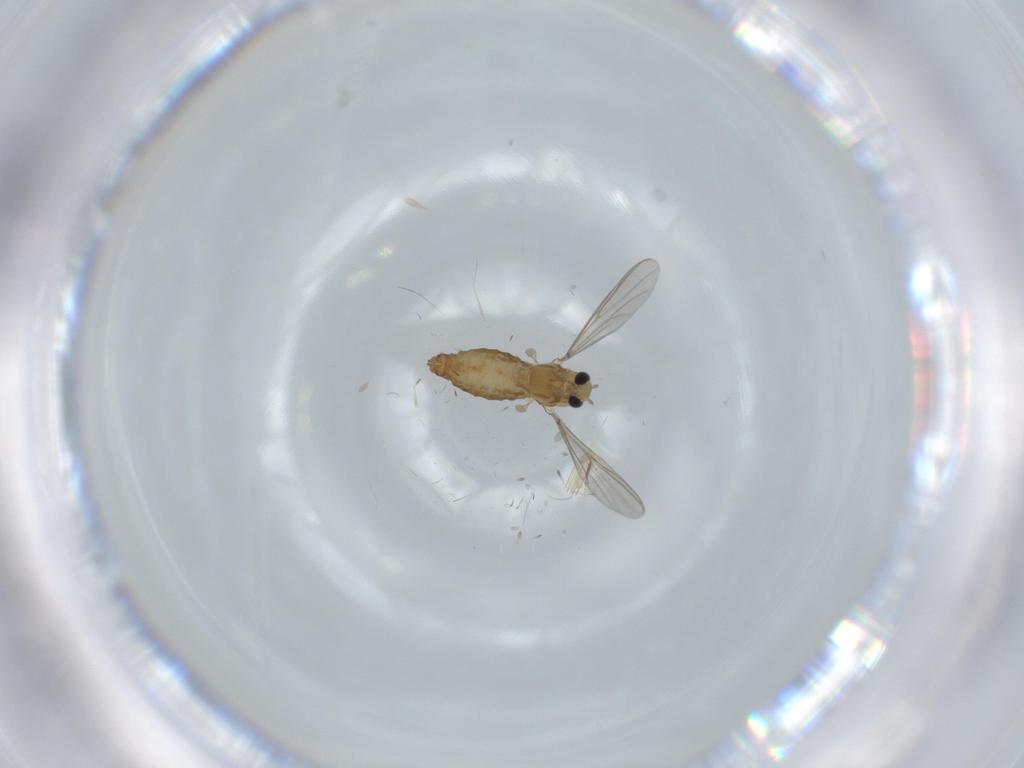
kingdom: Animalia
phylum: Arthropoda
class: Insecta
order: Diptera
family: Chironomidae
